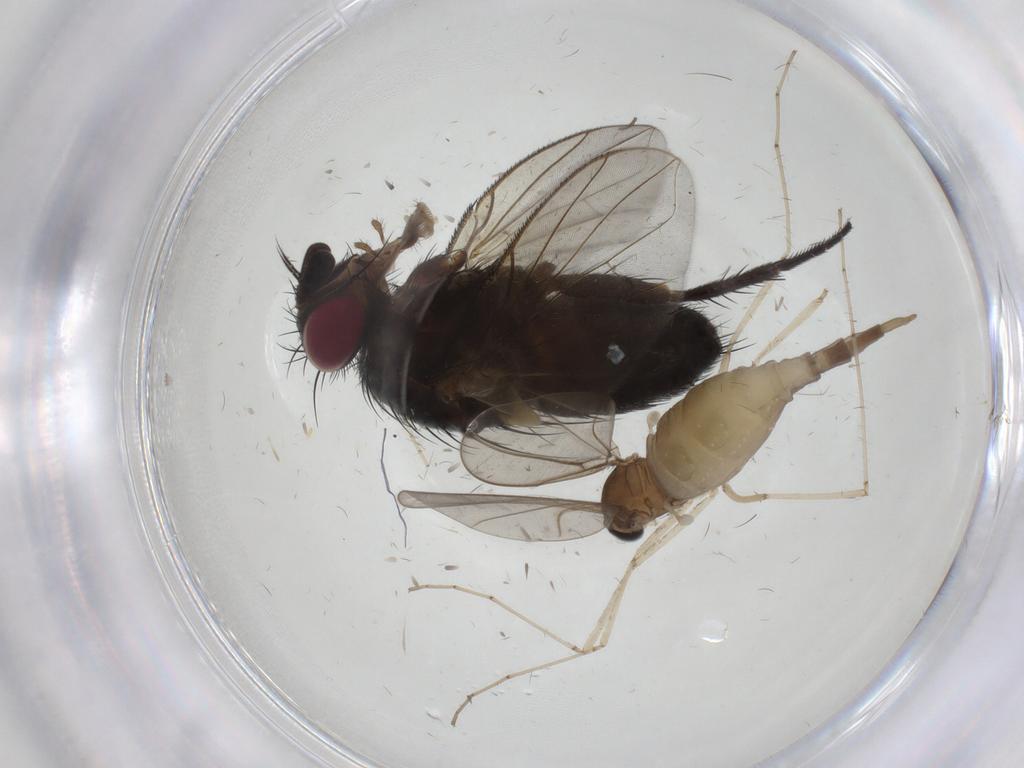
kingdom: Animalia
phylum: Arthropoda
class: Insecta
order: Diptera
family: Cecidomyiidae
